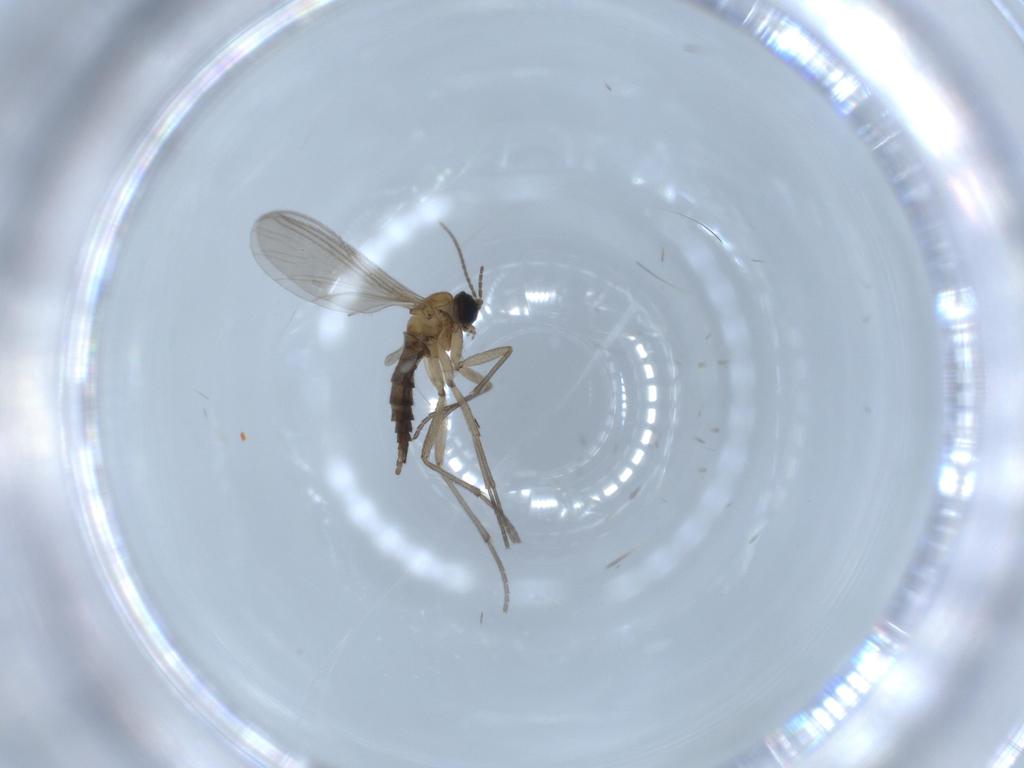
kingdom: Animalia
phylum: Arthropoda
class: Insecta
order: Diptera
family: Sciaridae
